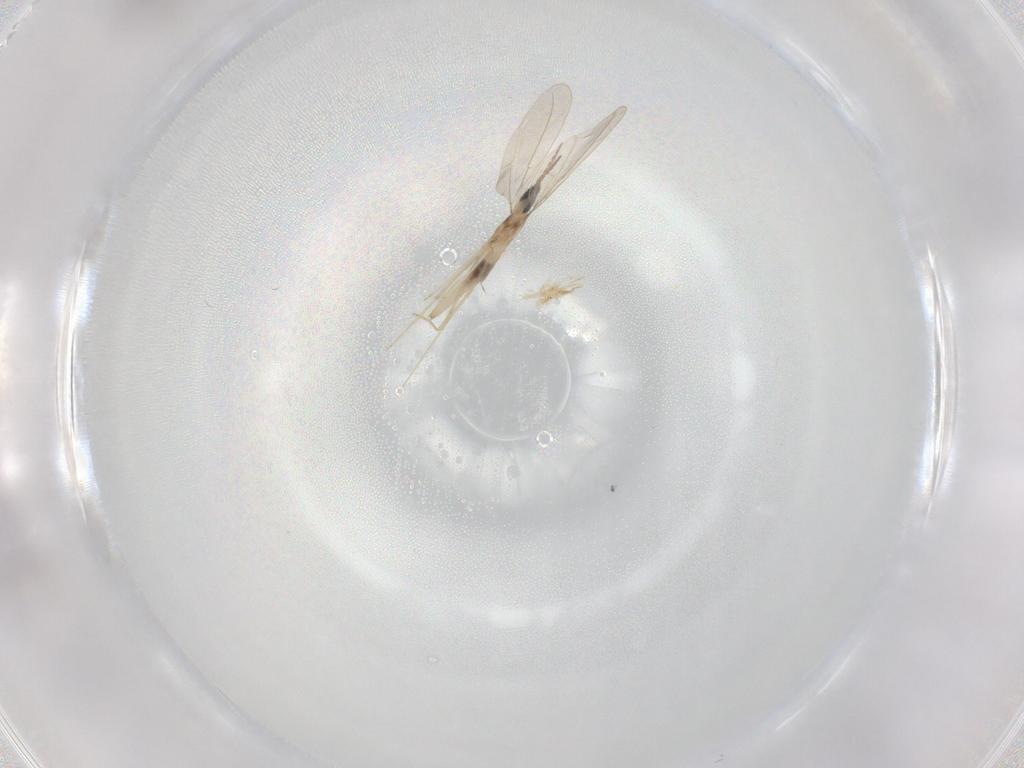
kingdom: Animalia
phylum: Arthropoda
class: Insecta
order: Diptera
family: Cecidomyiidae
